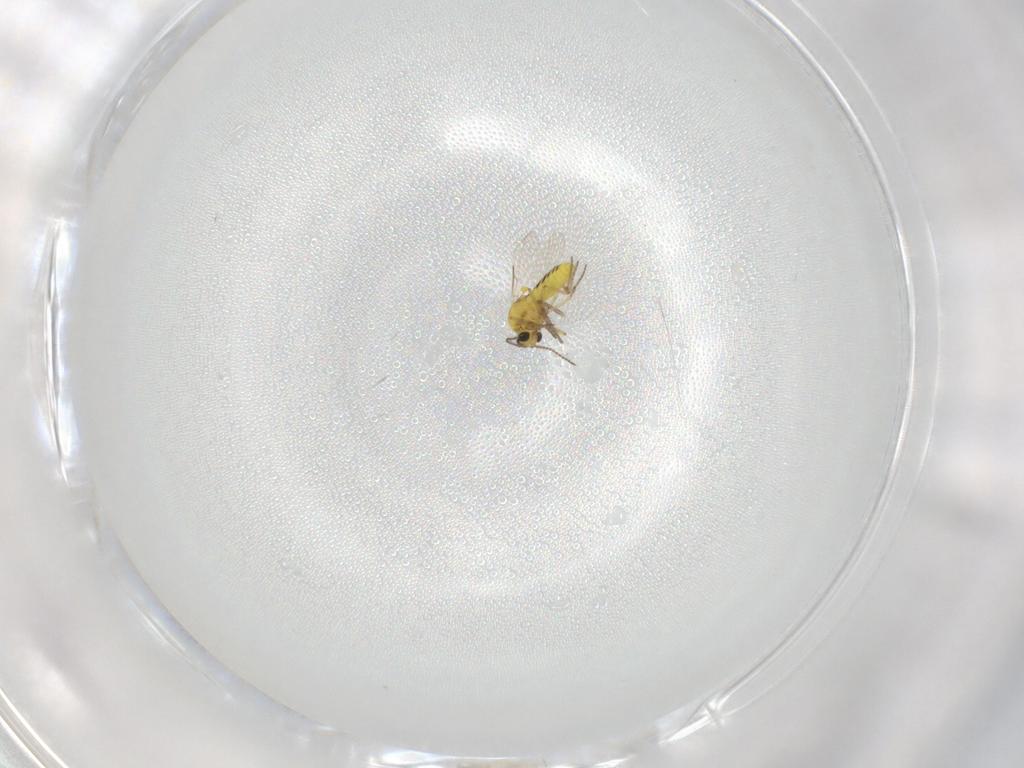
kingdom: Animalia
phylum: Arthropoda
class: Insecta
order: Diptera
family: Ceratopogonidae
